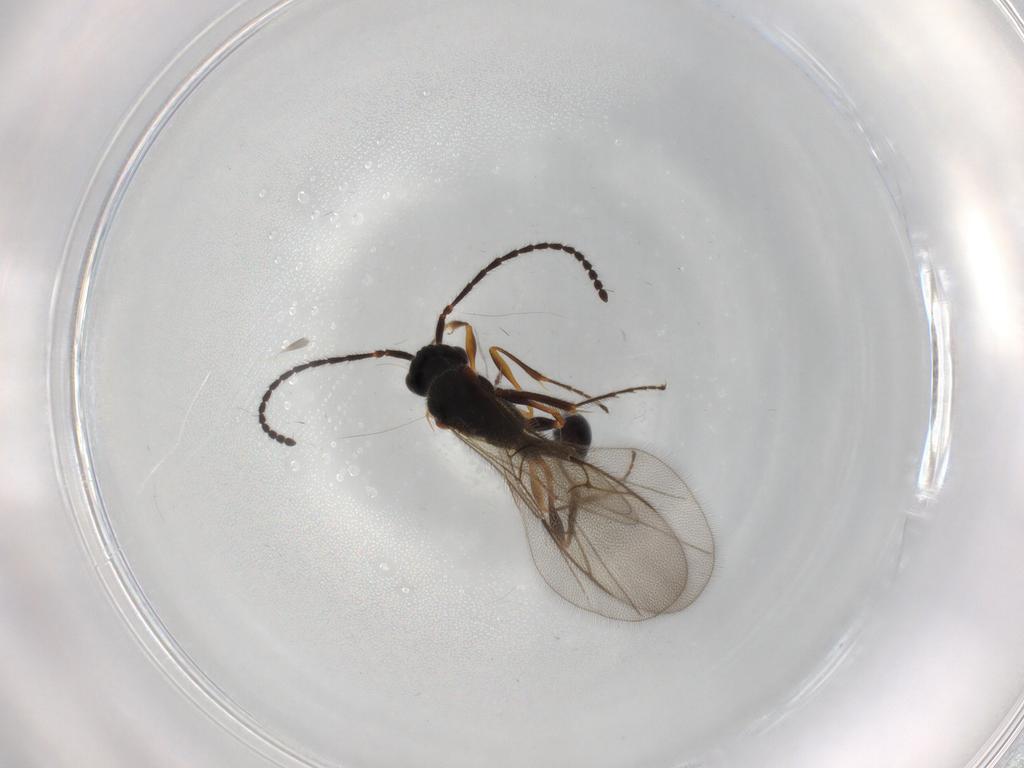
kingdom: Animalia
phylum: Arthropoda
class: Insecta
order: Hymenoptera
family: Diapriidae
